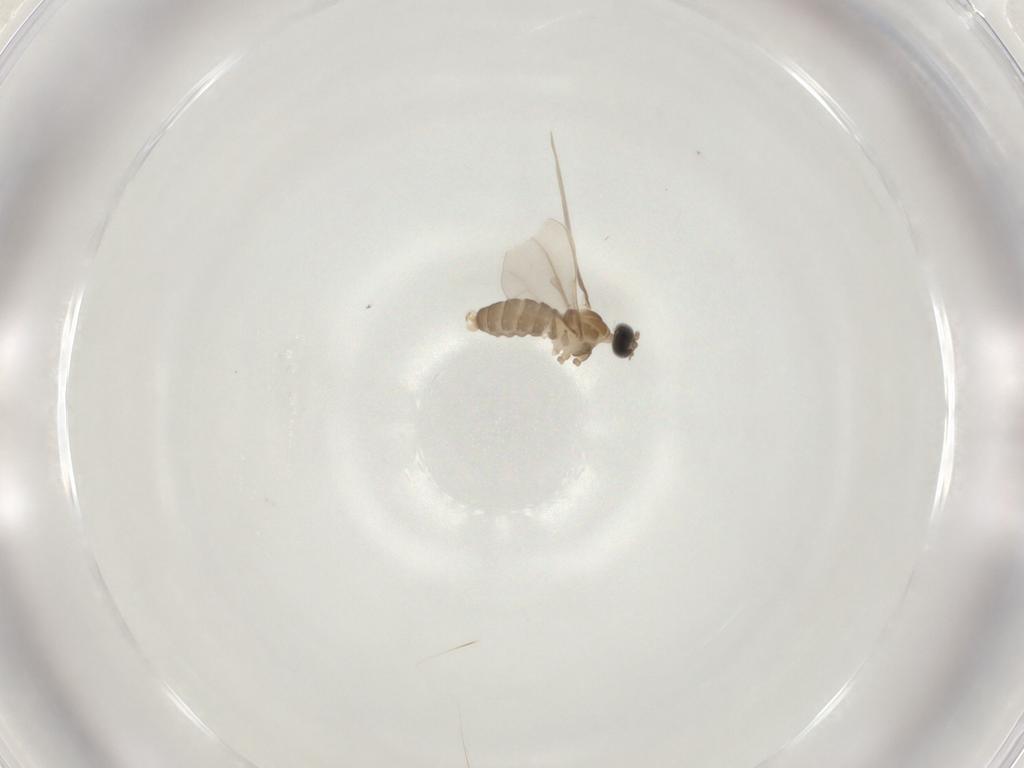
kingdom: Animalia
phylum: Arthropoda
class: Insecta
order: Diptera
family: Cecidomyiidae
